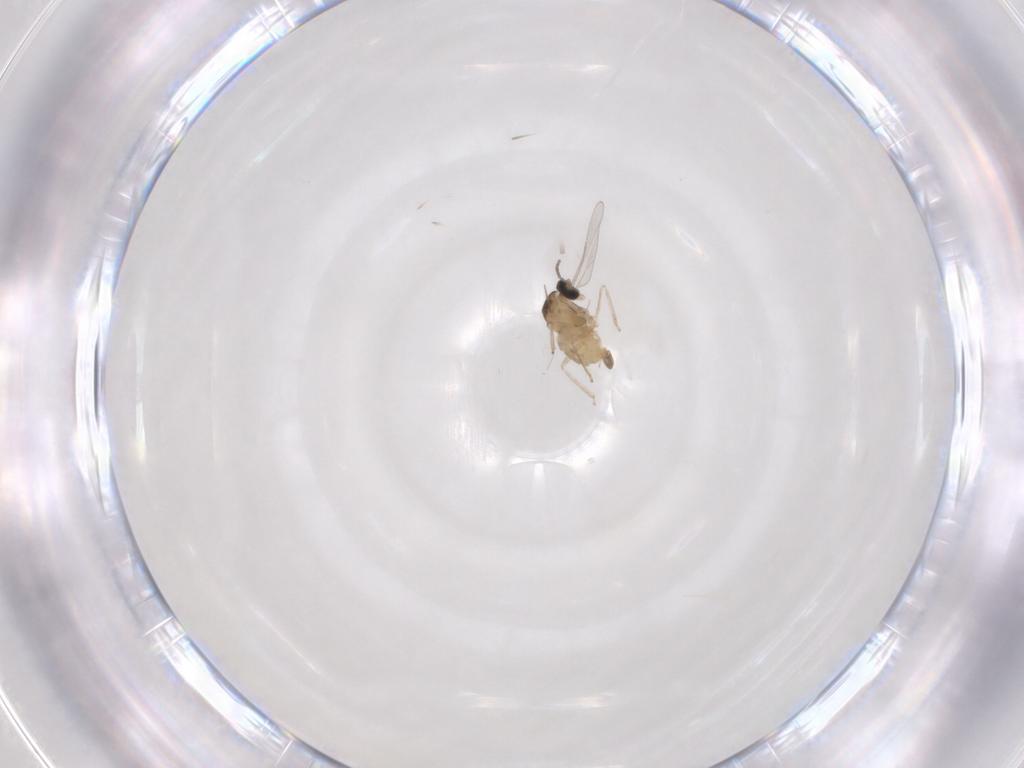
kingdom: Animalia
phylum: Arthropoda
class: Insecta
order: Diptera
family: Cecidomyiidae
